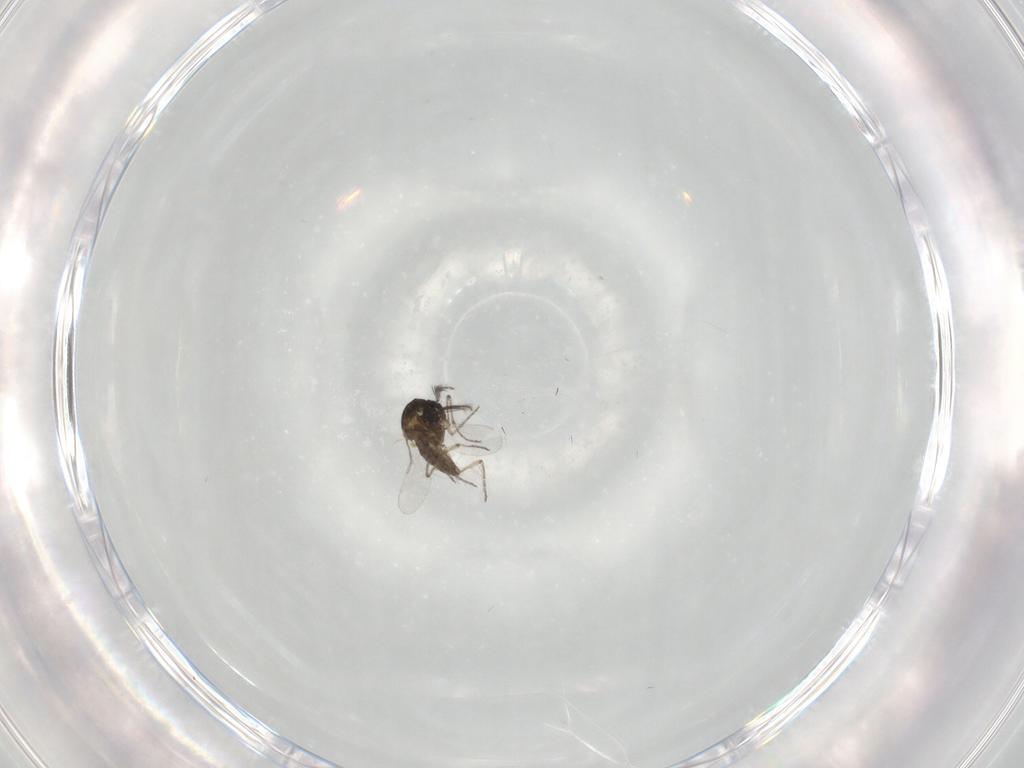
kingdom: Animalia
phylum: Arthropoda
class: Insecta
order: Diptera
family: Ceratopogonidae
